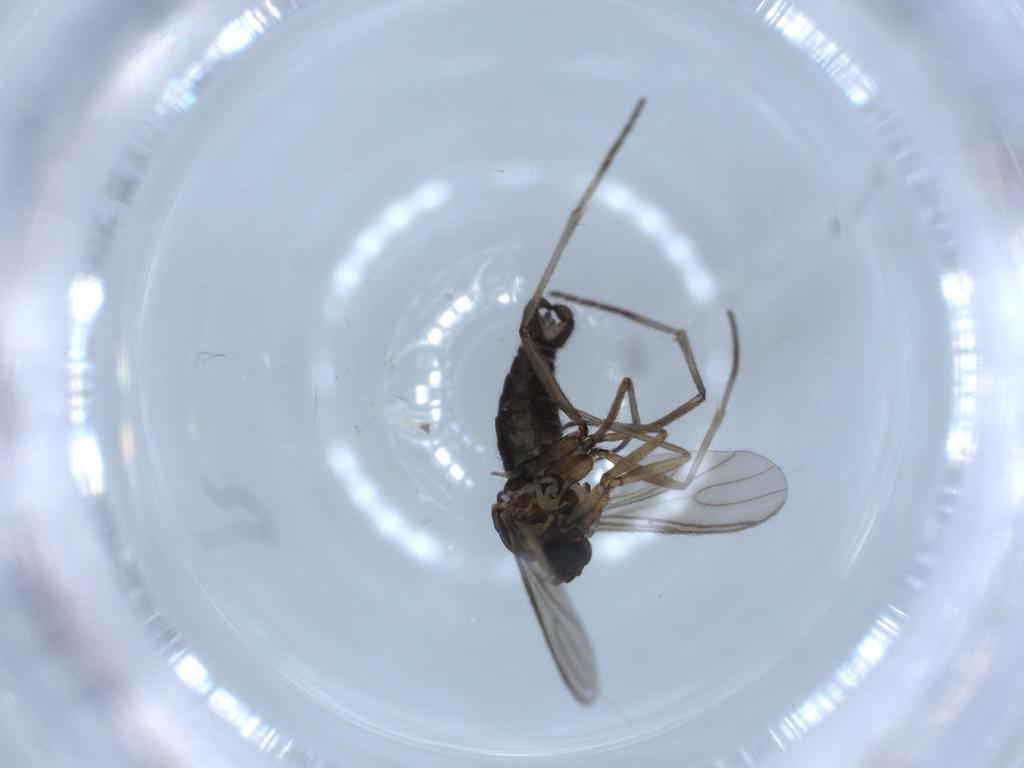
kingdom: Animalia
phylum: Arthropoda
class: Insecta
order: Diptera
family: Sciaridae
